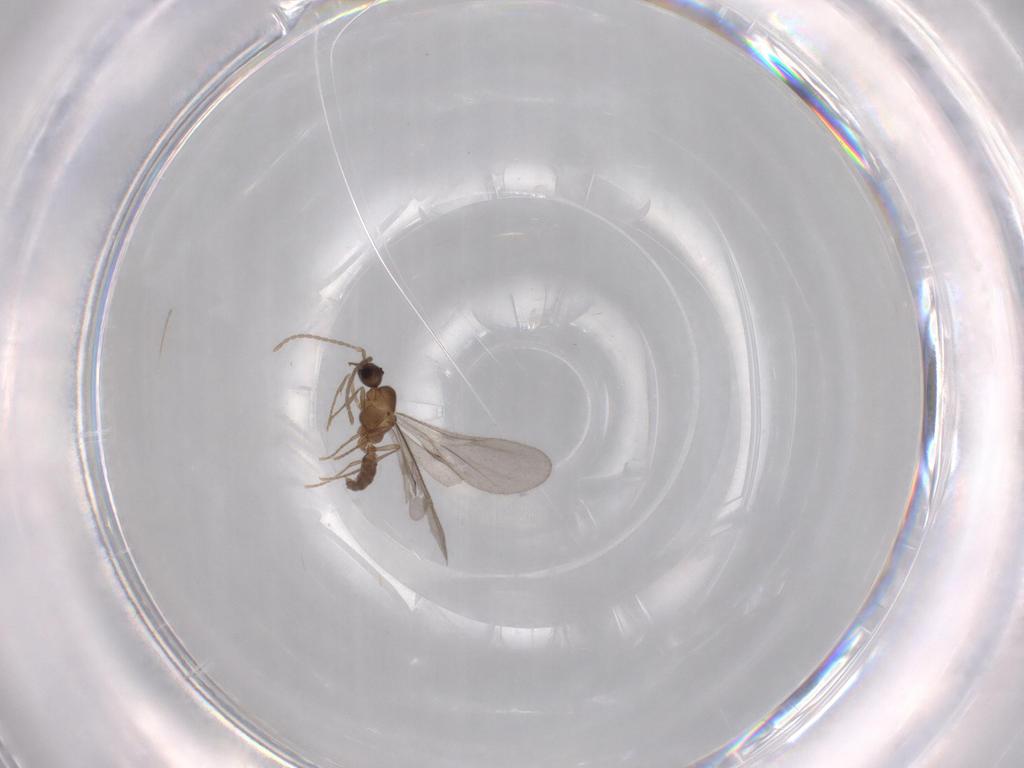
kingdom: Animalia
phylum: Arthropoda
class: Insecta
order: Hymenoptera
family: Formicidae
